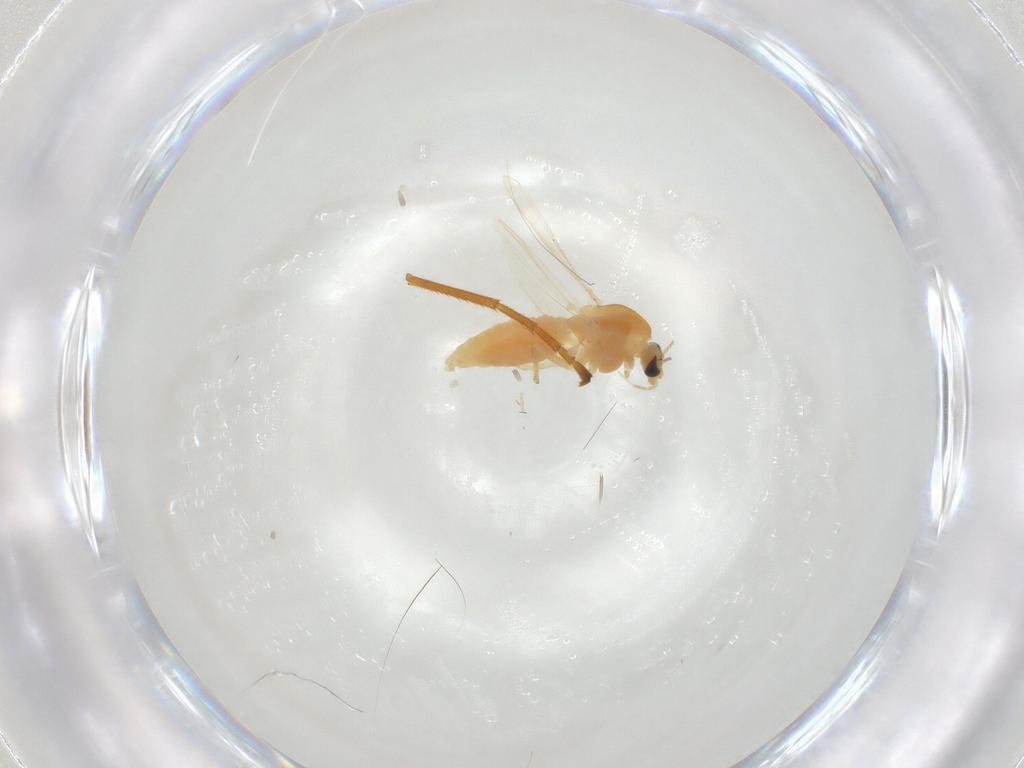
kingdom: Animalia
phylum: Arthropoda
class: Insecta
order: Diptera
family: Chironomidae
